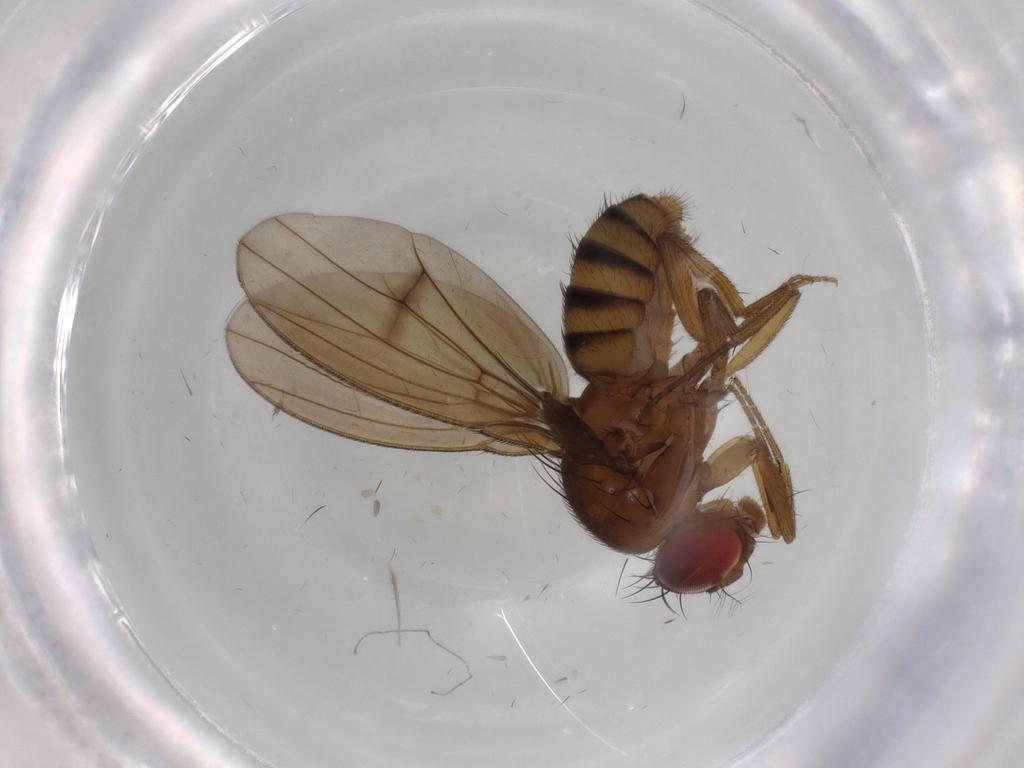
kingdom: Animalia
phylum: Arthropoda
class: Insecta
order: Diptera
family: Drosophilidae
